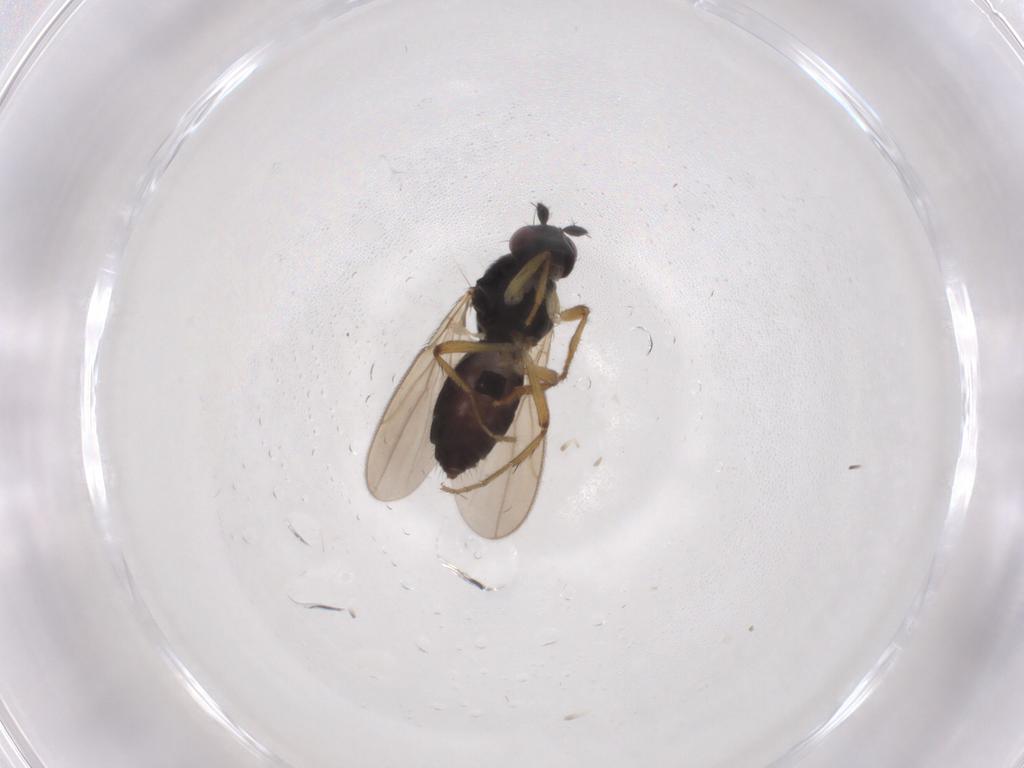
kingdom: Animalia
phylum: Arthropoda
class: Insecta
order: Diptera
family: Sphaeroceridae
